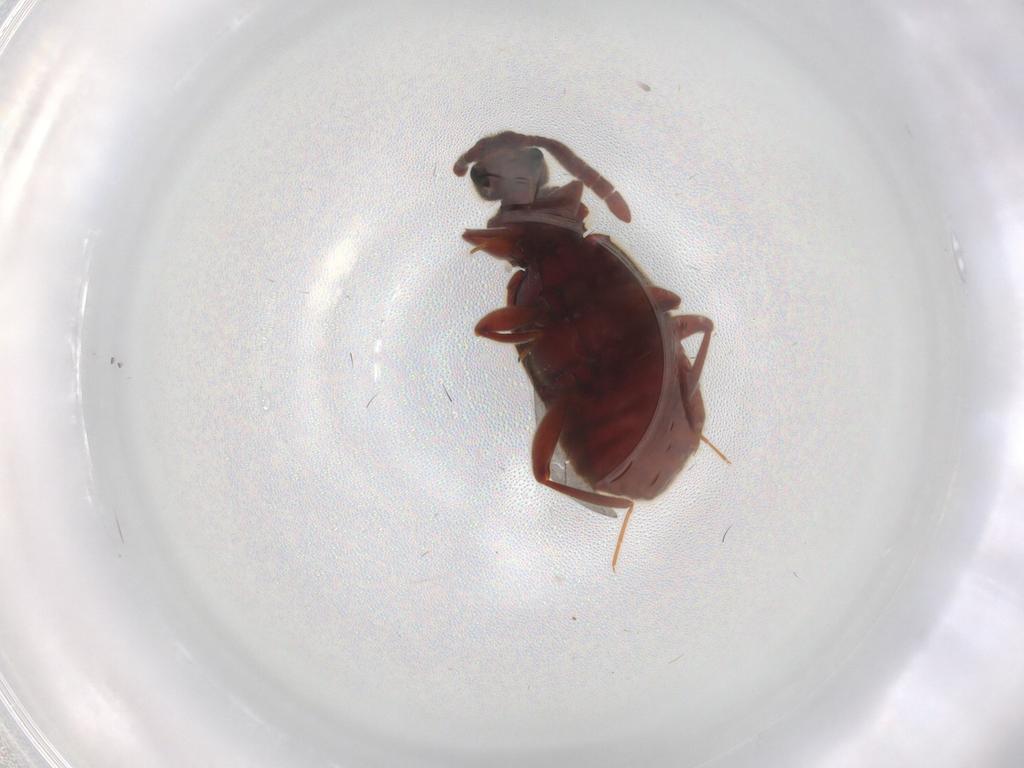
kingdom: Animalia
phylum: Arthropoda
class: Insecta
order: Coleoptera
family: Staphylinidae
